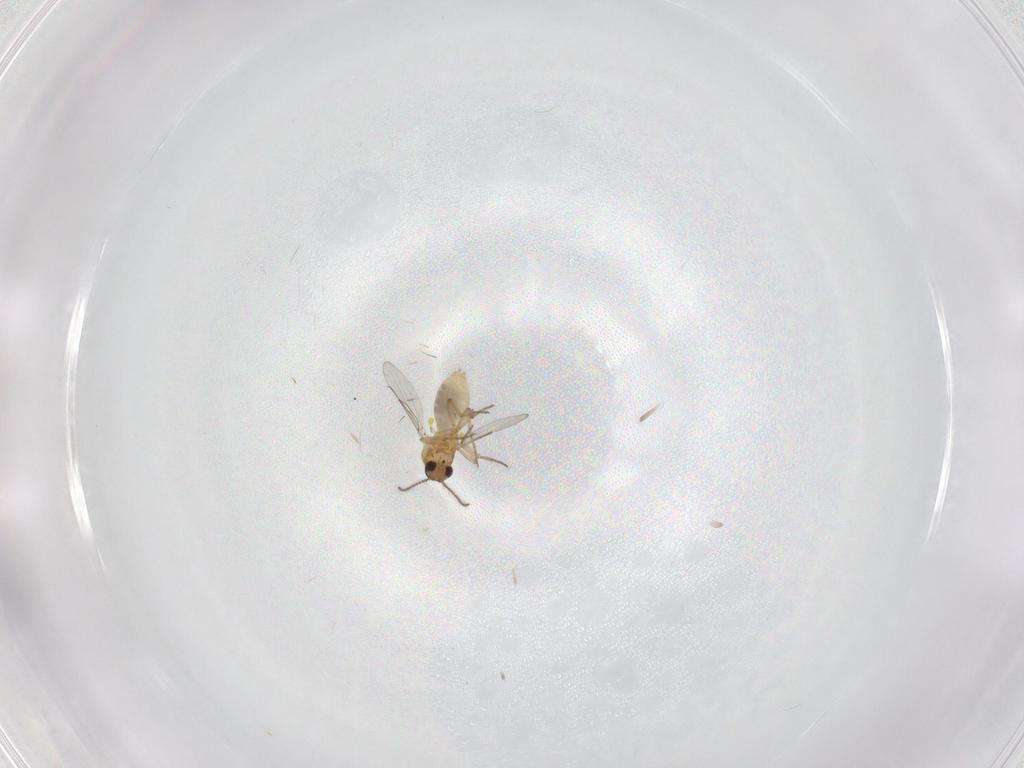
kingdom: Animalia
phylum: Arthropoda
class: Insecta
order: Diptera
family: Ceratopogonidae
